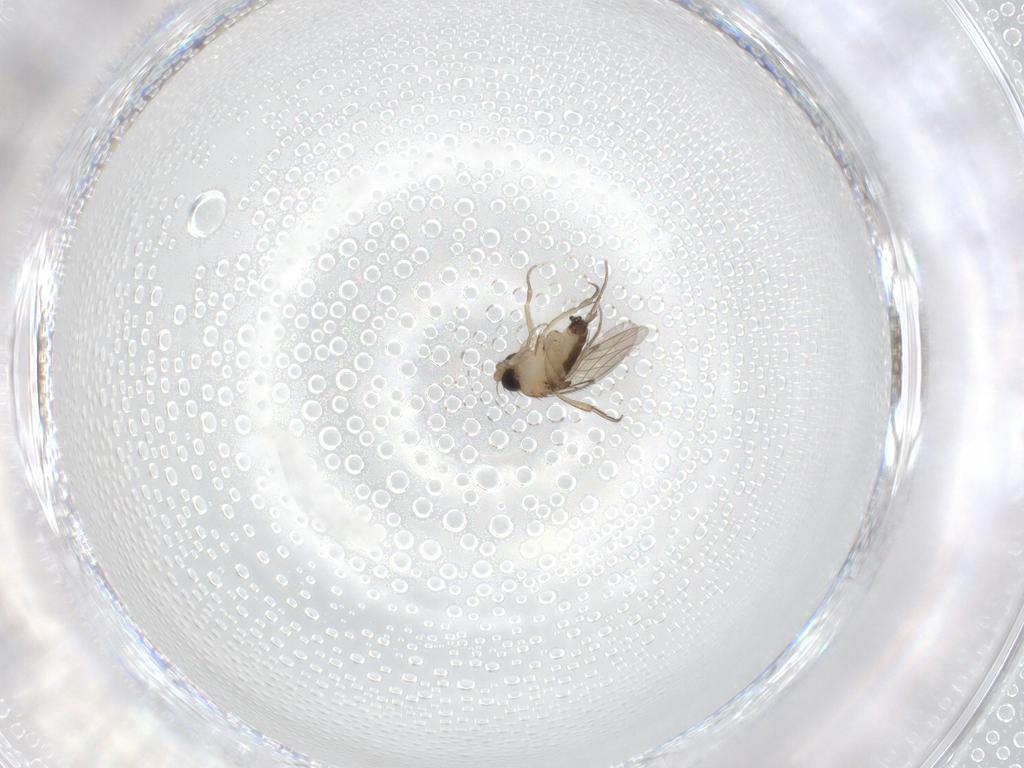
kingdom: Animalia
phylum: Arthropoda
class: Insecta
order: Diptera
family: Phoridae
